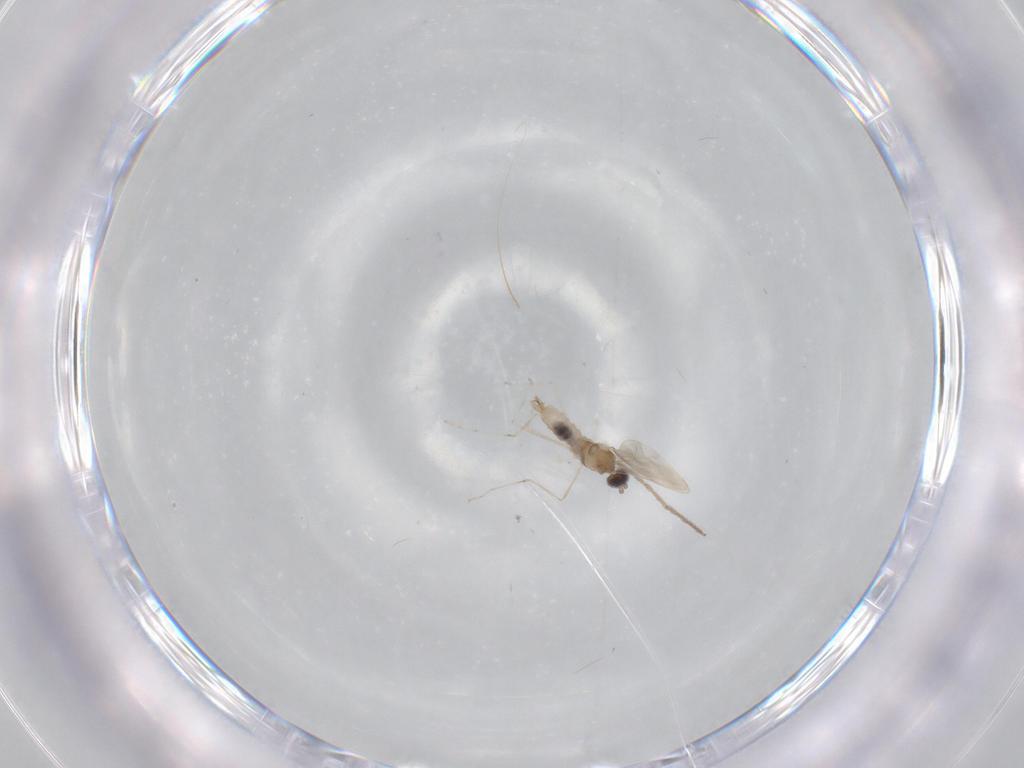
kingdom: Animalia
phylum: Arthropoda
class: Insecta
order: Diptera
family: Cecidomyiidae
